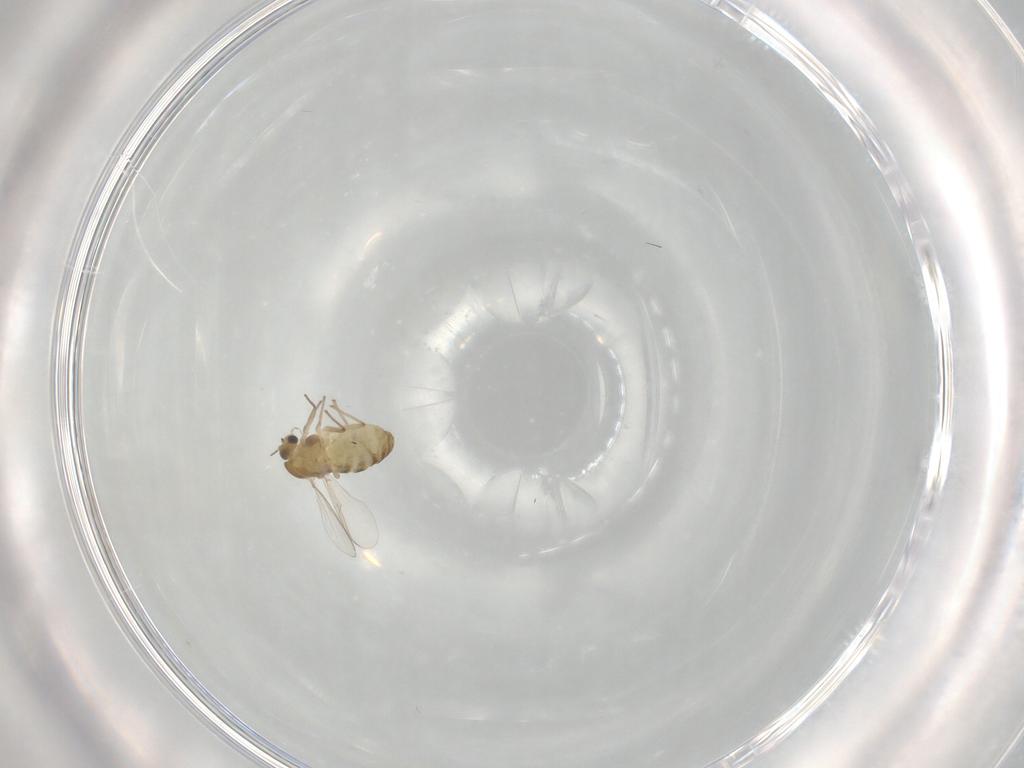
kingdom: Animalia
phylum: Arthropoda
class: Insecta
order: Diptera
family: Chironomidae
